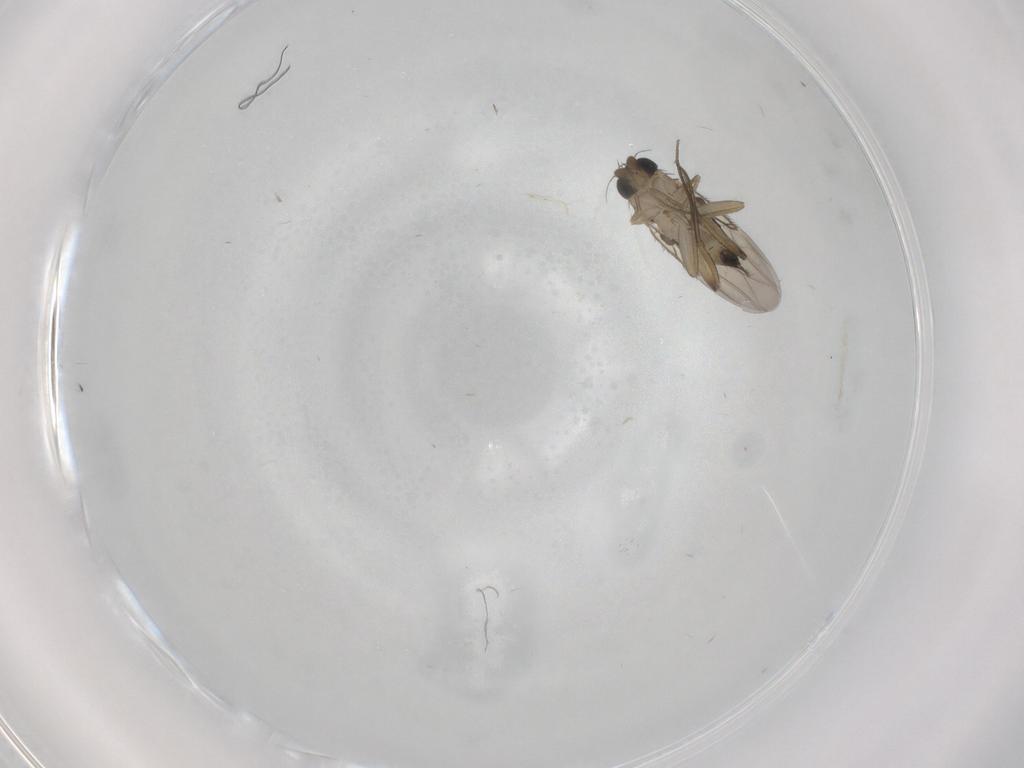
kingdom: Animalia
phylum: Arthropoda
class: Insecta
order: Diptera
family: Phoridae
